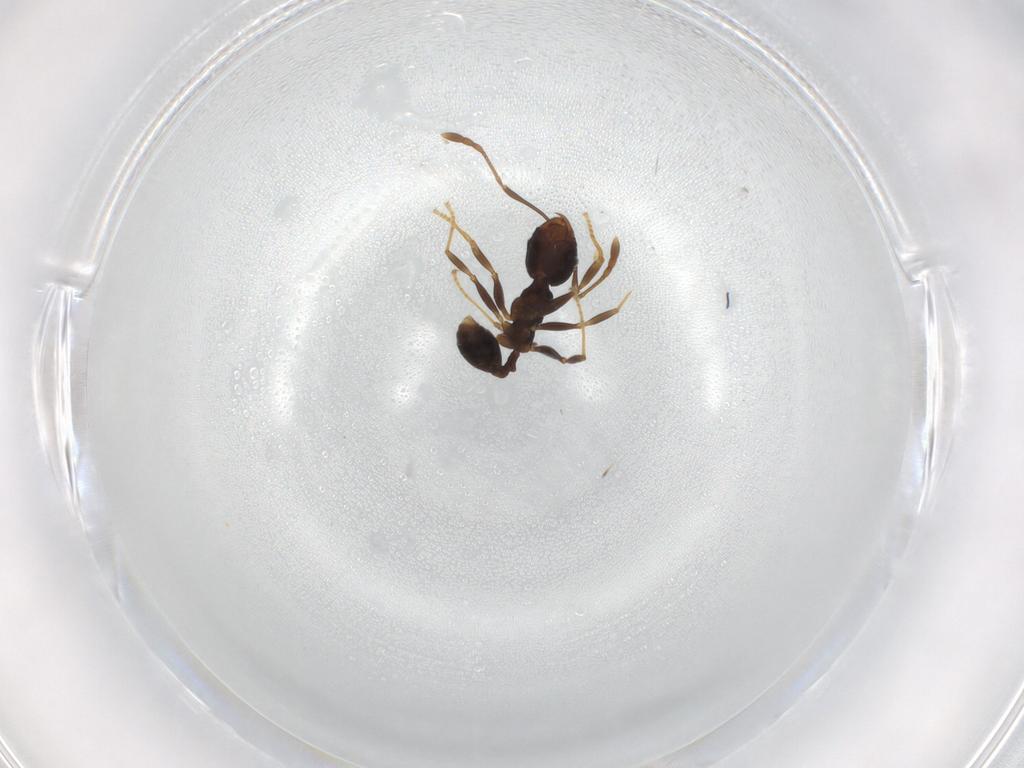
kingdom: Animalia
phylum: Arthropoda
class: Insecta
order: Hymenoptera
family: Formicidae
